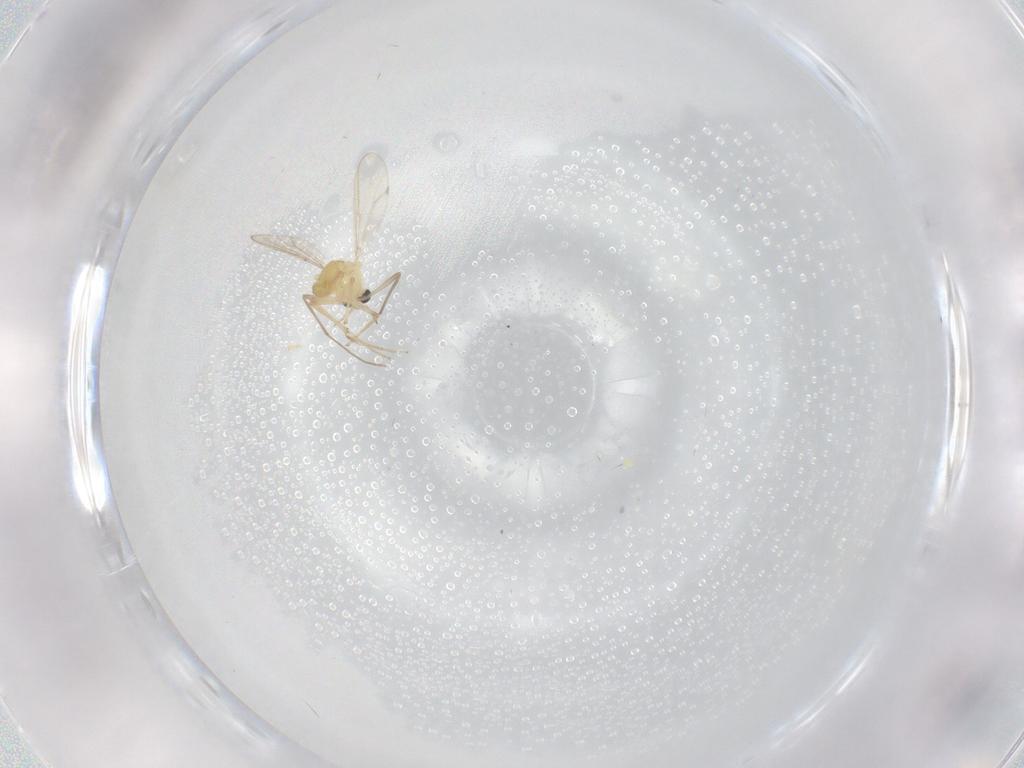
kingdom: Animalia
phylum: Arthropoda
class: Insecta
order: Diptera
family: Chironomidae
